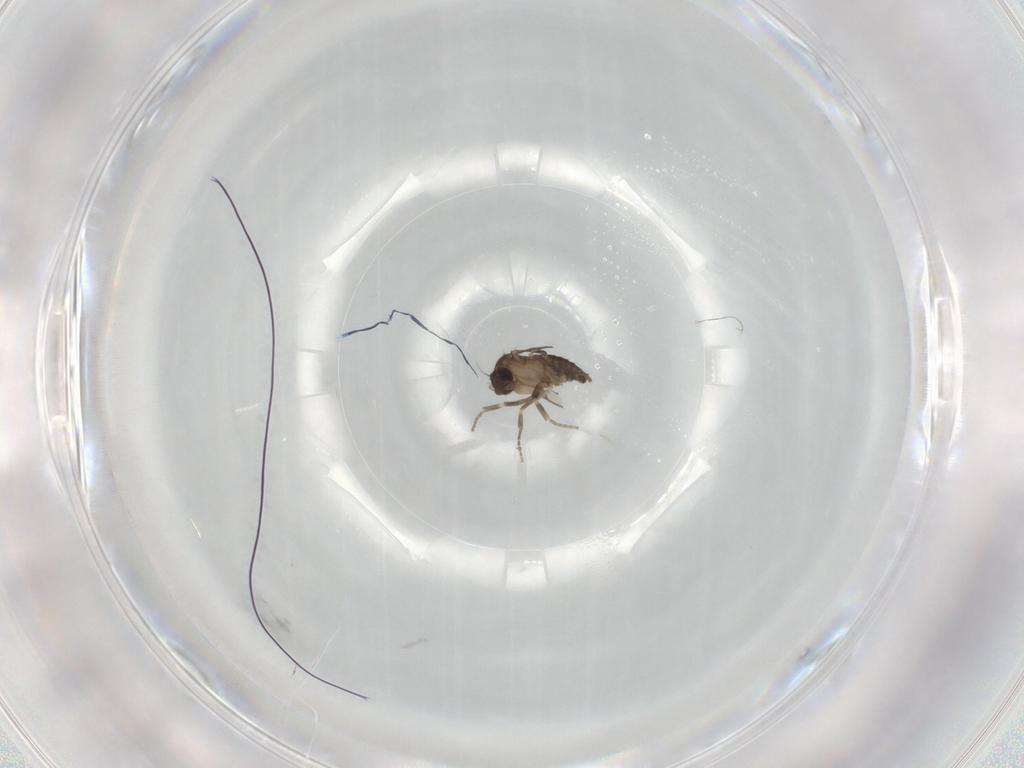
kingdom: Animalia
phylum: Arthropoda
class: Insecta
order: Diptera
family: Phoridae
